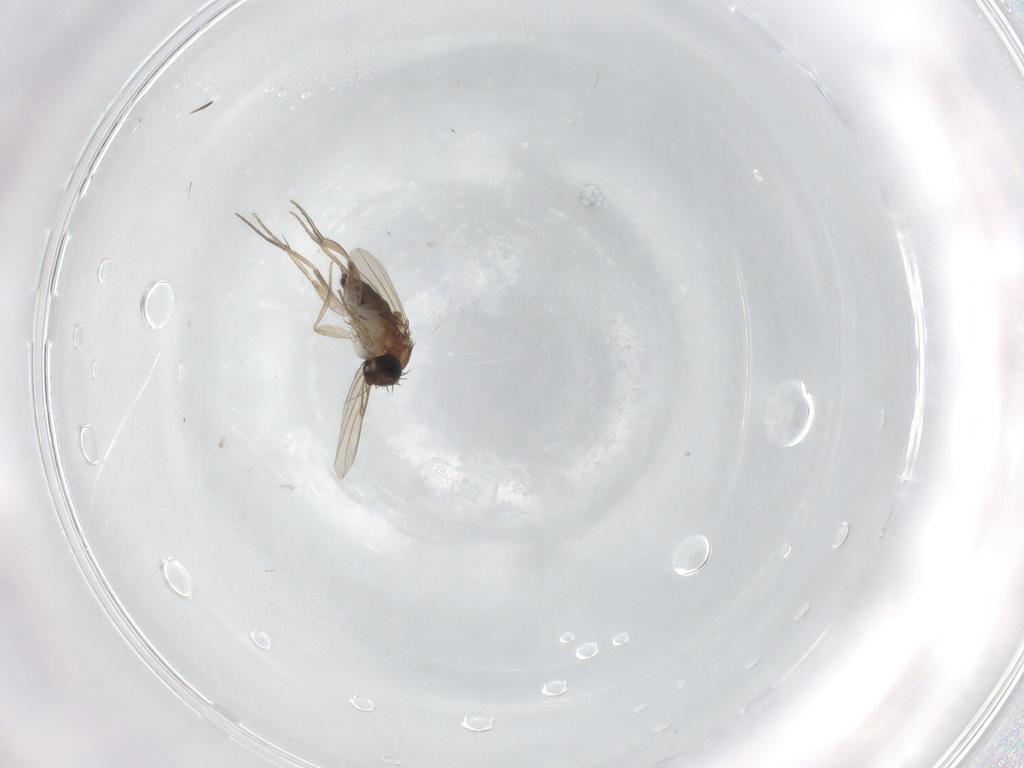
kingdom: Animalia
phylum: Arthropoda
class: Insecta
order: Diptera
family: Phoridae
